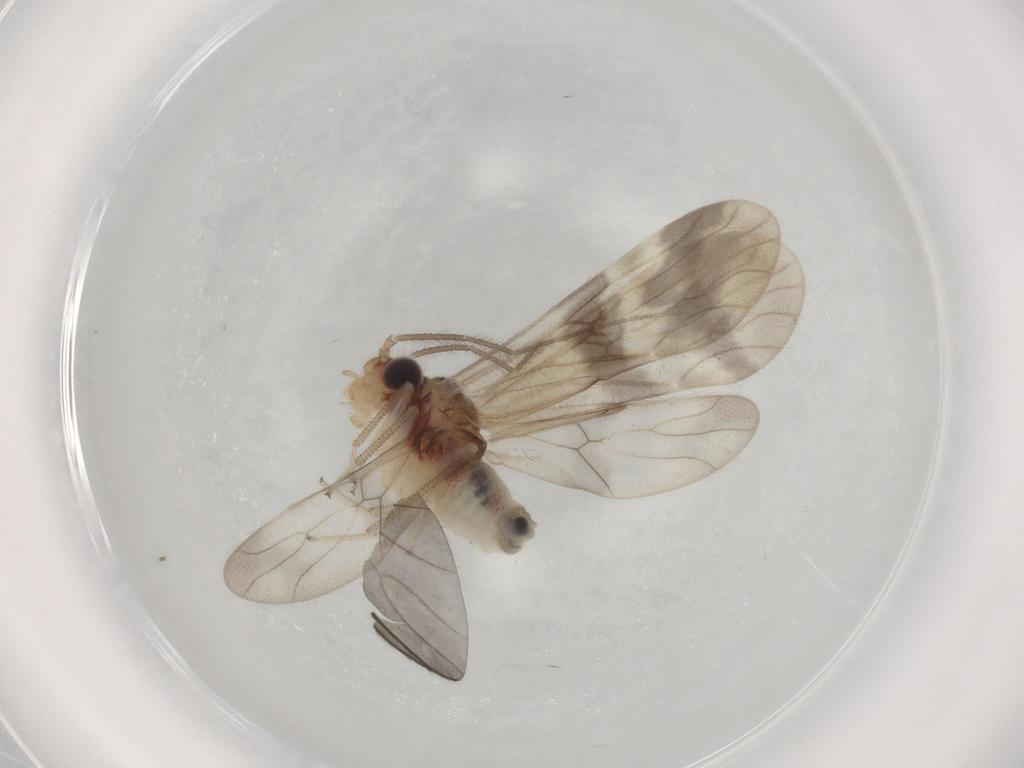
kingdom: Animalia
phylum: Arthropoda
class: Insecta
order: Psocodea
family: Amphipsocidae
